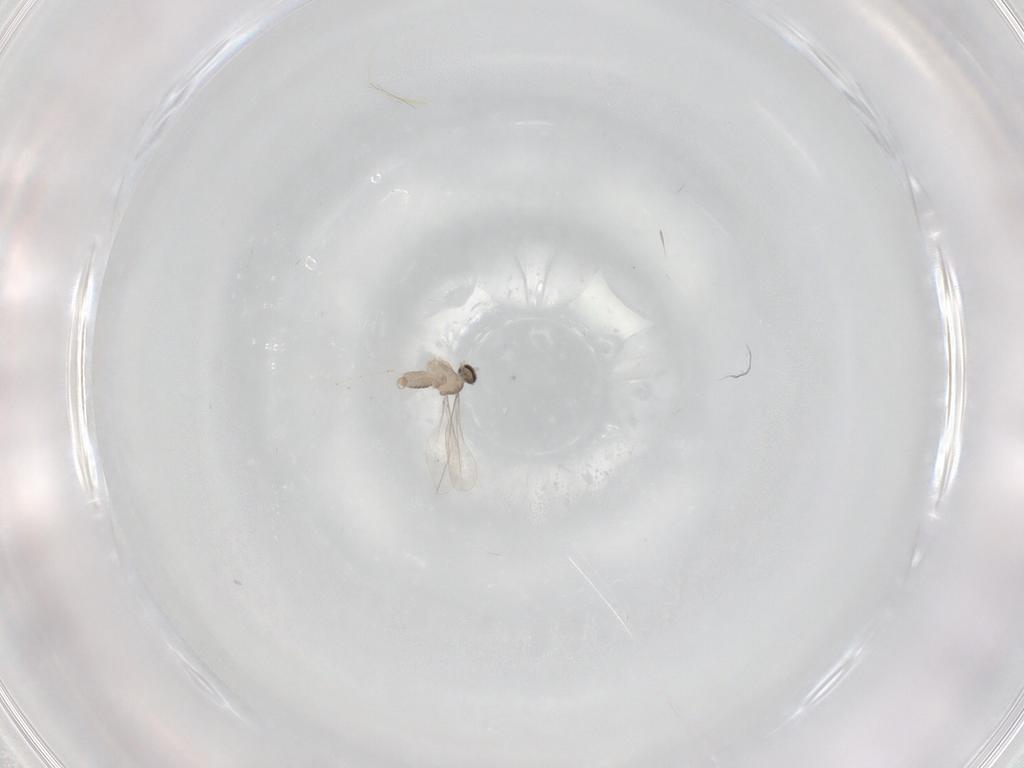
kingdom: Animalia
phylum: Arthropoda
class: Insecta
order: Diptera
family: Cecidomyiidae
